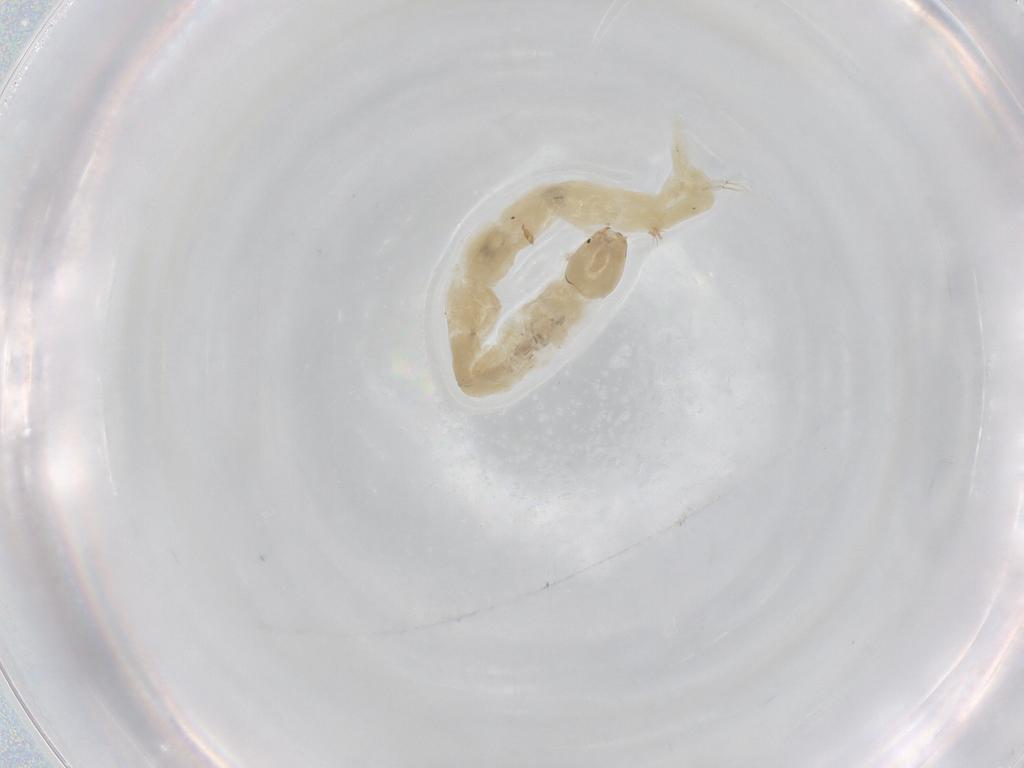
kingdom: Animalia
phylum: Arthropoda
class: Insecta
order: Diptera
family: Chironomidae
